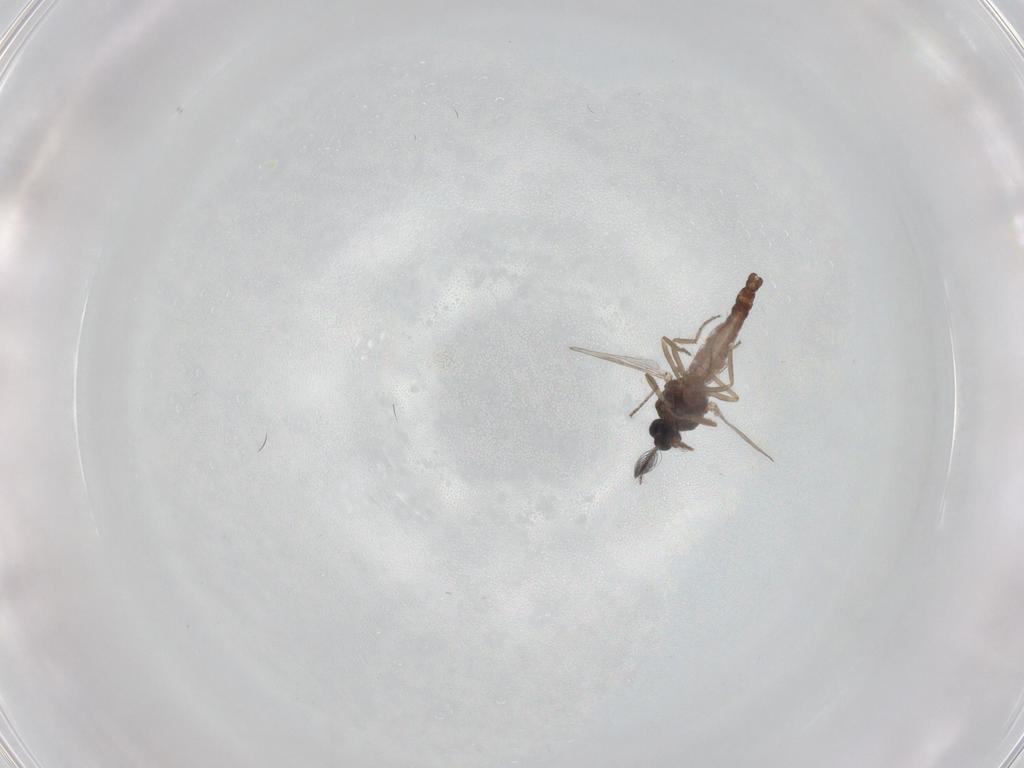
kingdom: Animalia
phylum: Arthropoda
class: Insecta
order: Diptera
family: Ceratopogonidae
